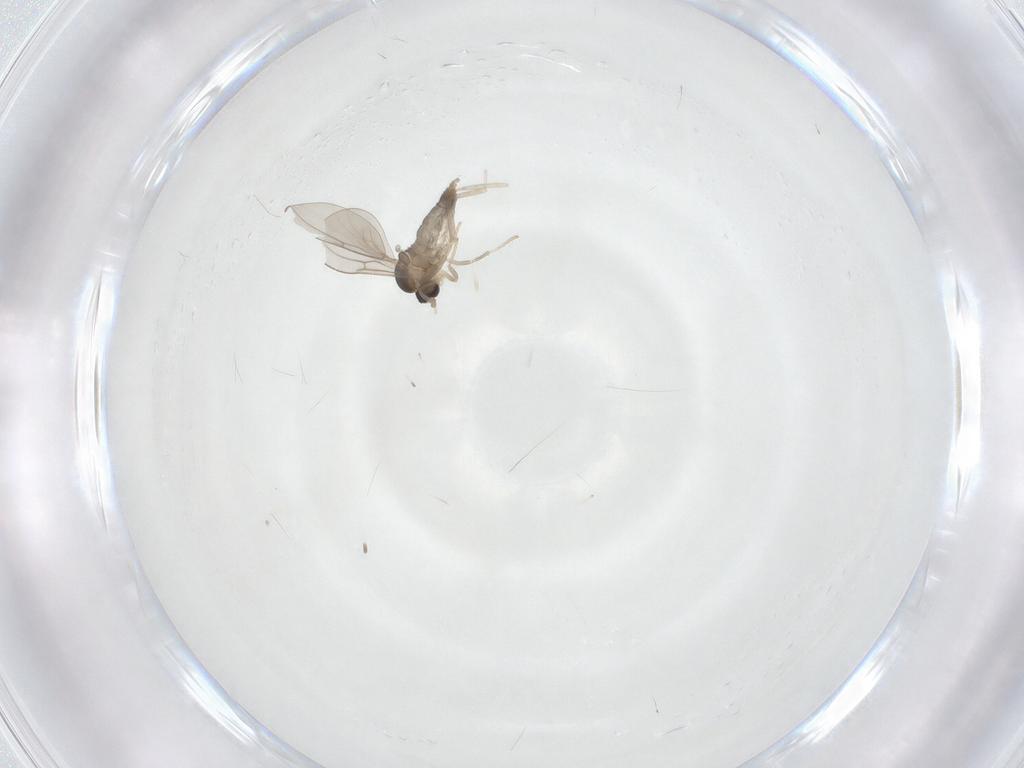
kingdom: Animalia
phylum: Arthropoda
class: Insecta
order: Diptera
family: Cecidomyiidae
